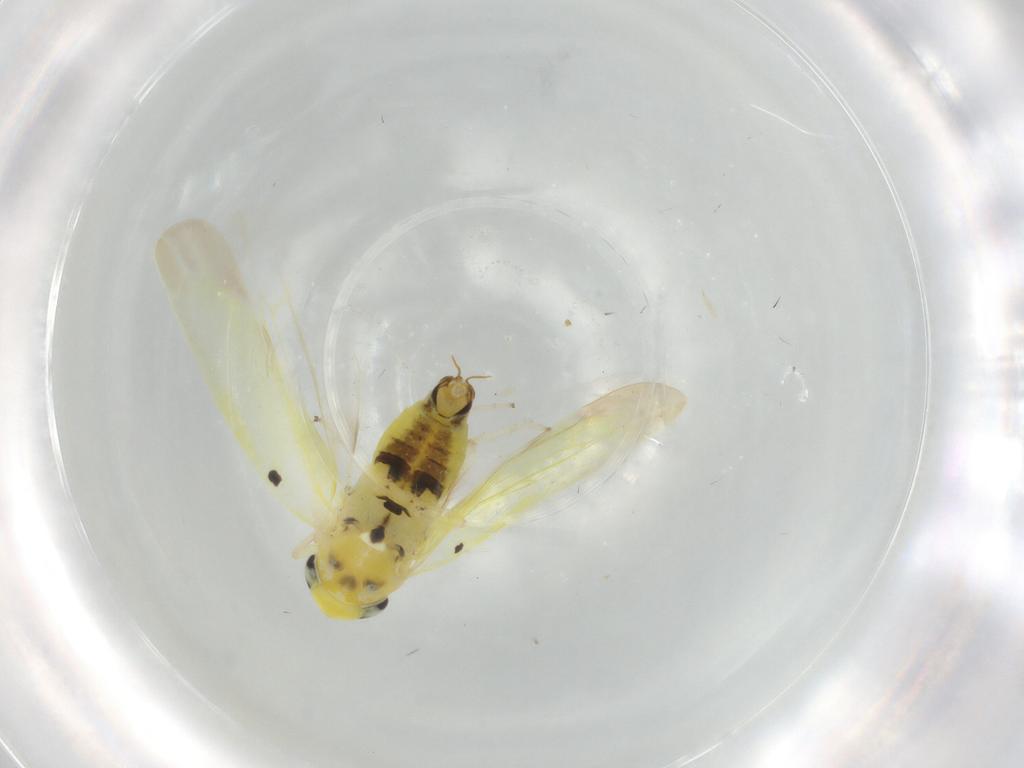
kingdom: Animalia
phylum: Arthropoda
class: Insecta
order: Hemiptera
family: Cicadellidae
